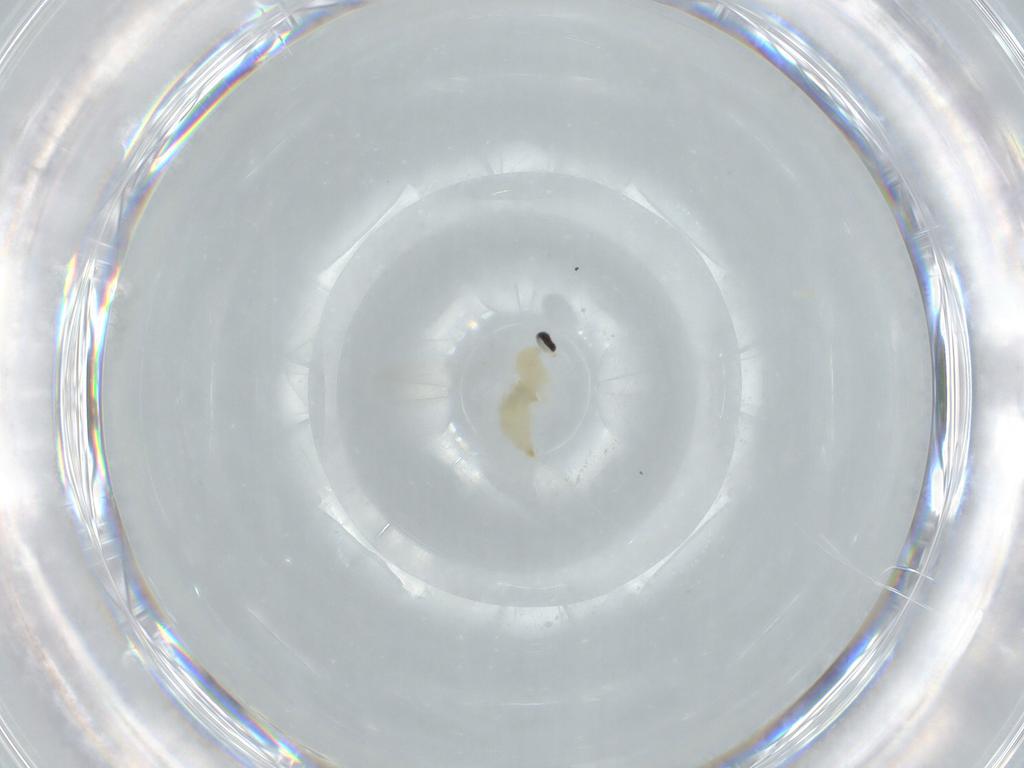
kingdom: Animalia
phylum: Arthropoda
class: Insecta
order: Diptera
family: Cecidomyiidae
